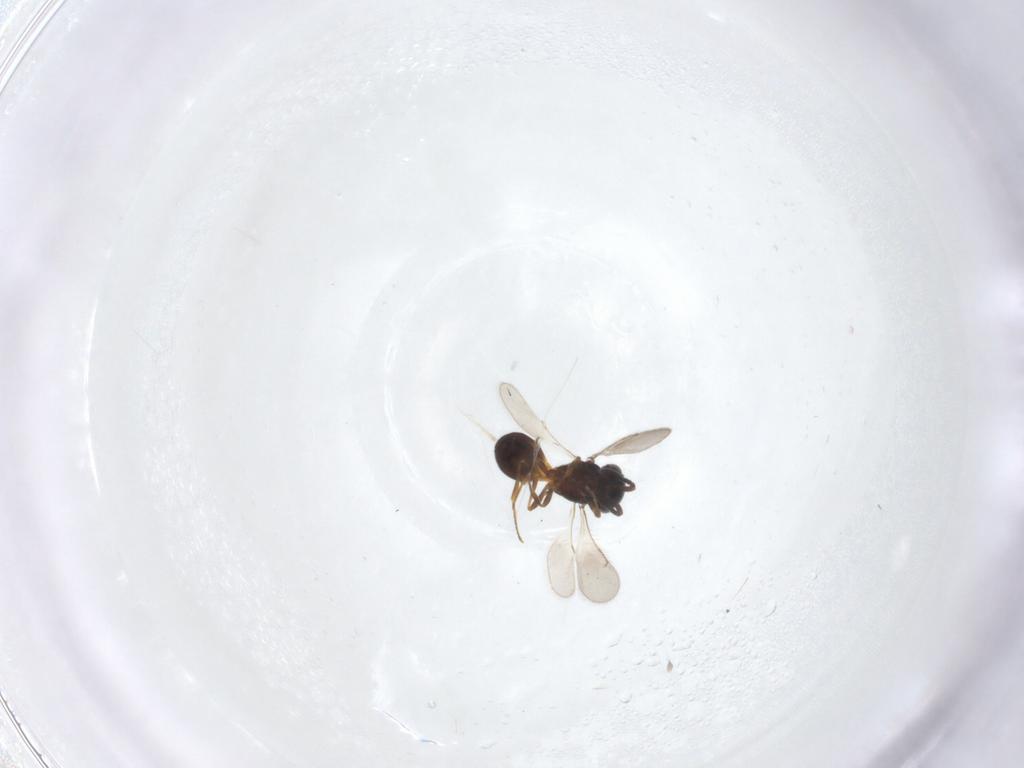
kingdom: Animalia
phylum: Arthropoda
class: Insecta
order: Hymenoptera
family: Scelionidae
